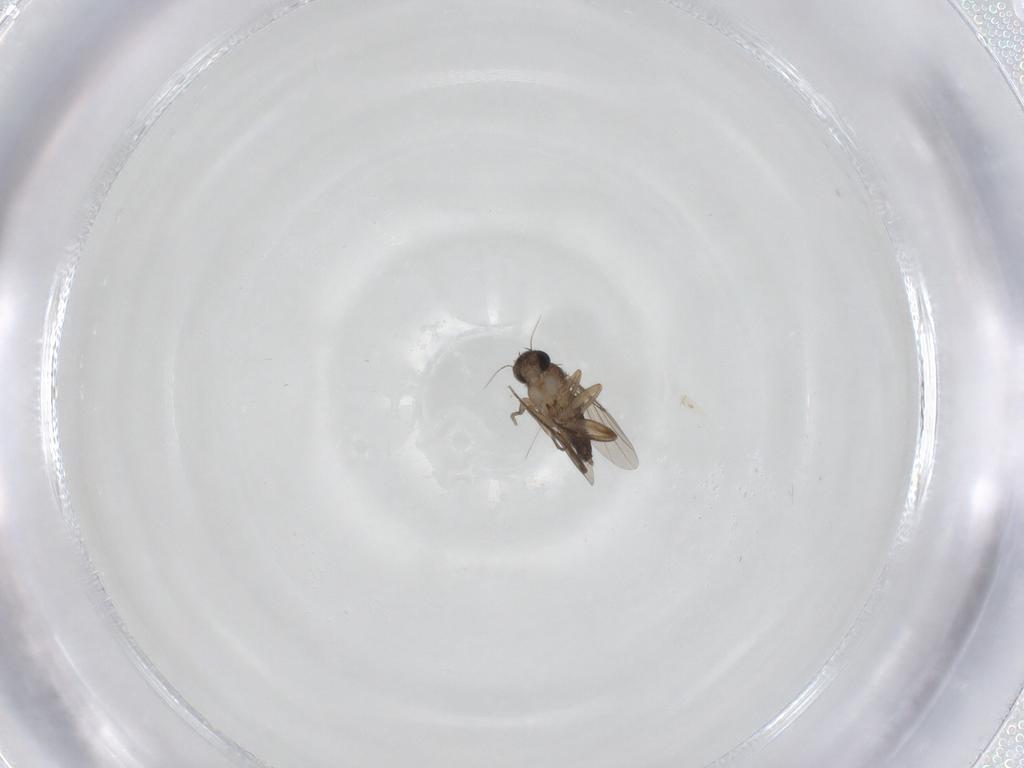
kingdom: Animalia
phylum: Arthropoda
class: Insecta
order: Diptera
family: Phoridae
